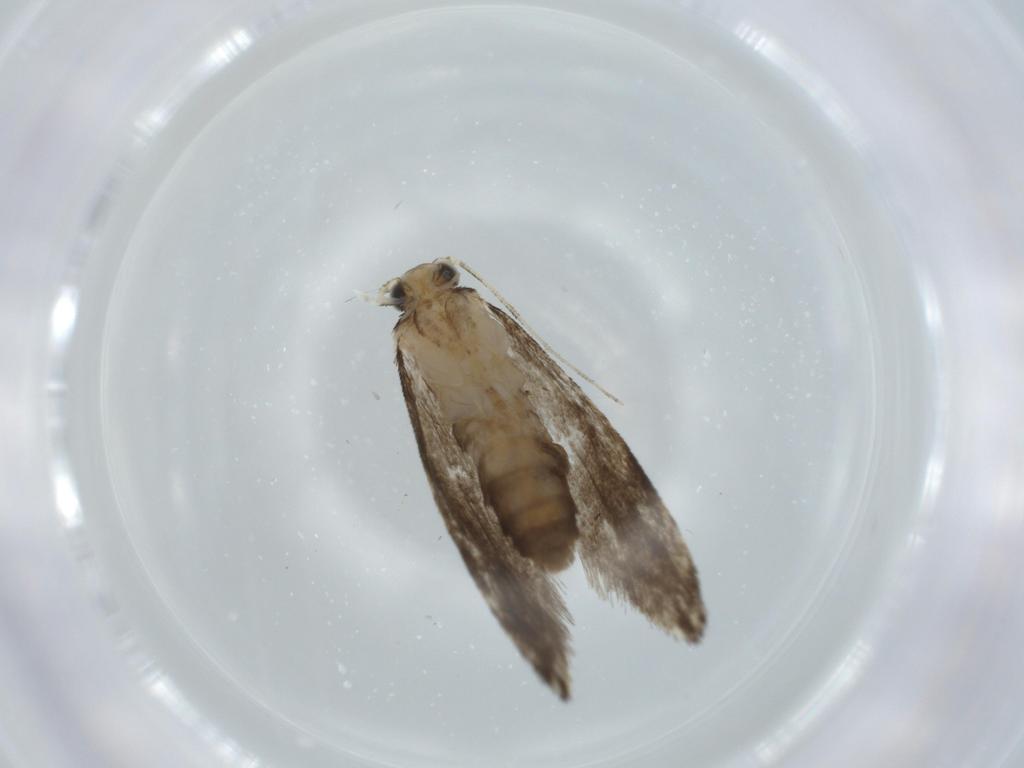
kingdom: Animalia
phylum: Arthropoda
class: Insecta
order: Lepidoptera
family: Tineidae
